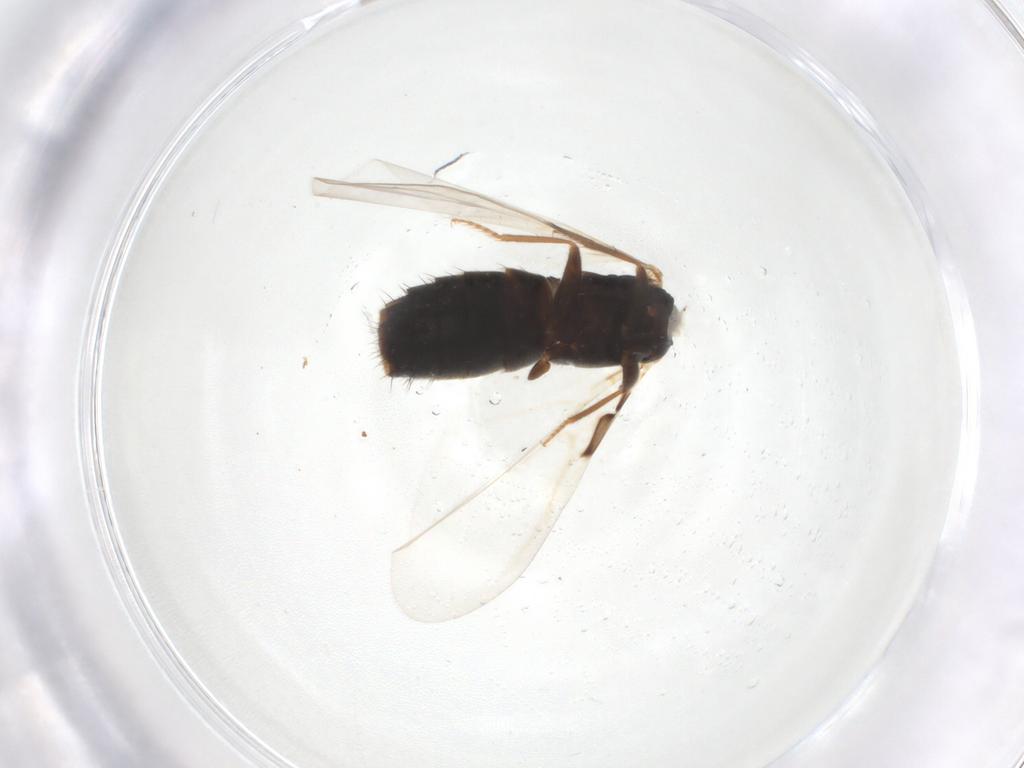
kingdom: Animalia
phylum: Arthropoda
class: Insecta
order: Coleoptera
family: Staphylinidae
